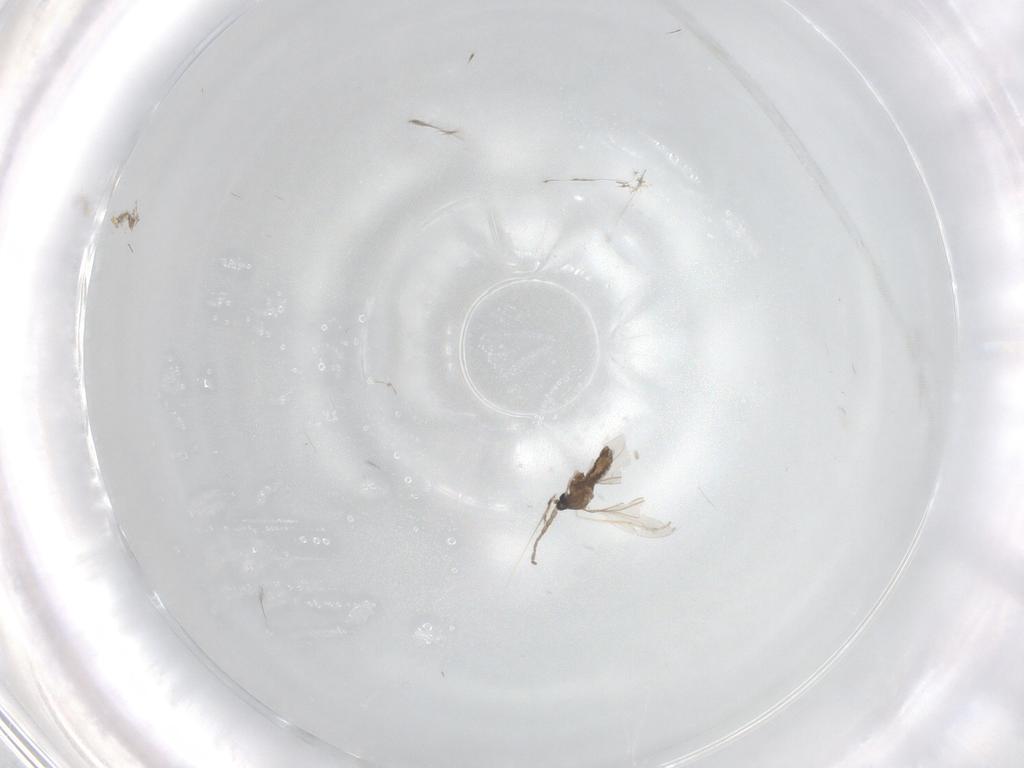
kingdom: Animalia
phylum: Arthropoda
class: Insecta
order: Diptera
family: Cecidomyiidae
